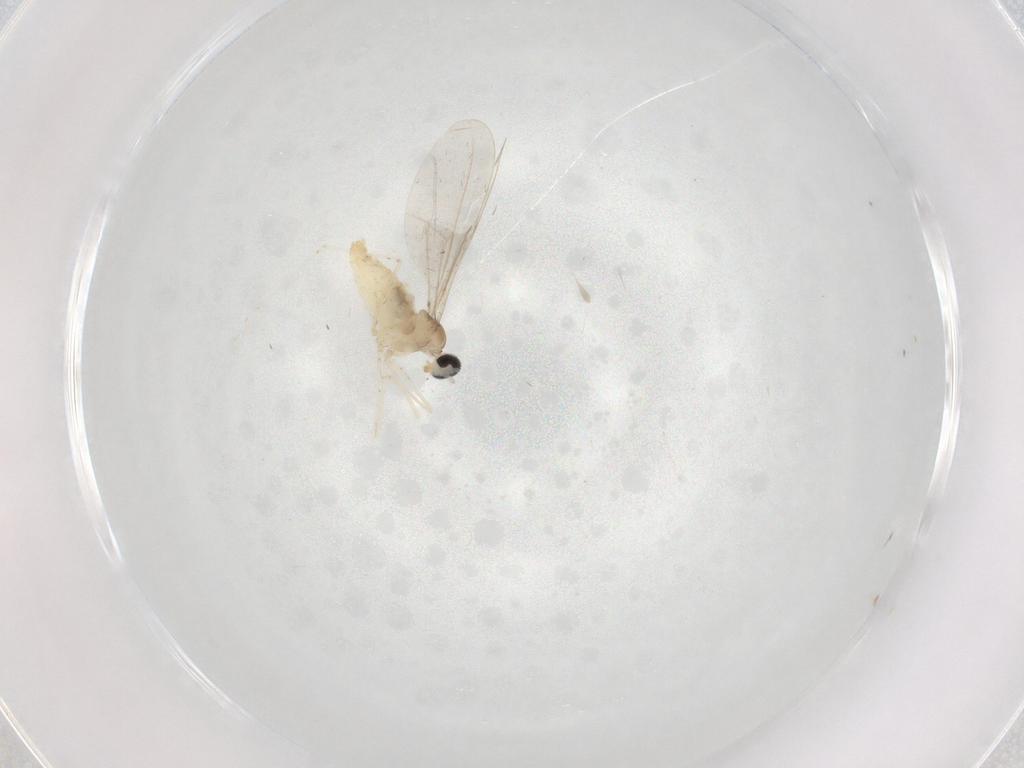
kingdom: Animalia
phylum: Arthropoda
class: Insecta
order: Diptera
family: Cecidomyiidae
